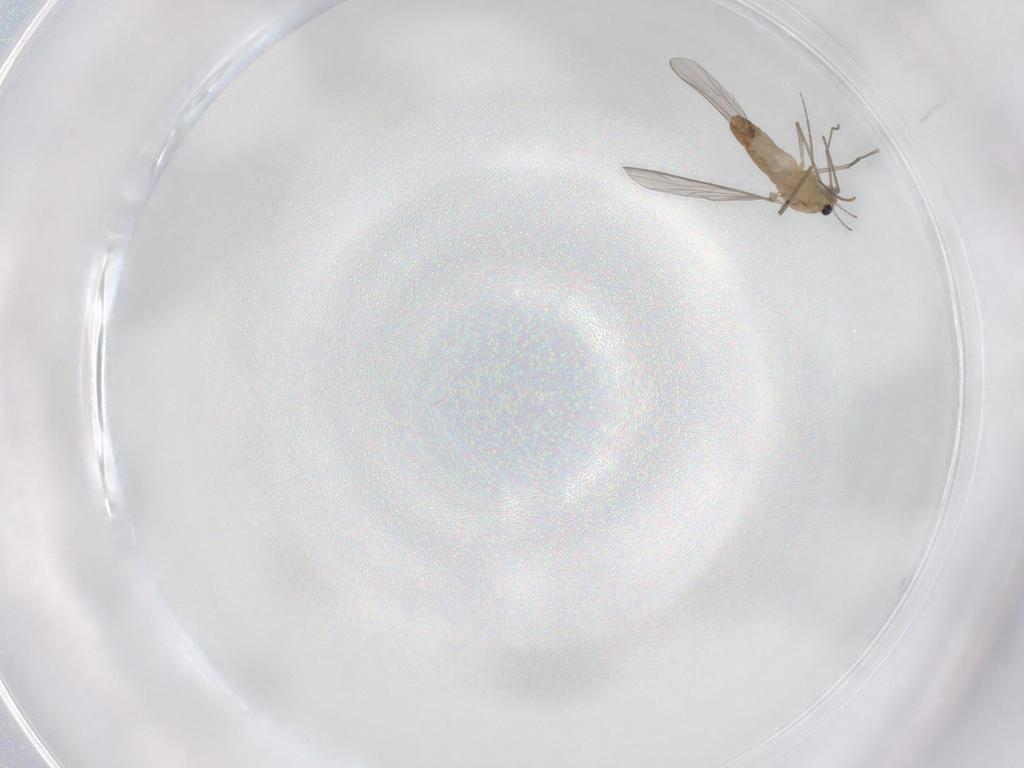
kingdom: Animalia
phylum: Arthropoda
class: Insecta
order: Diptera
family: Chironomidae
